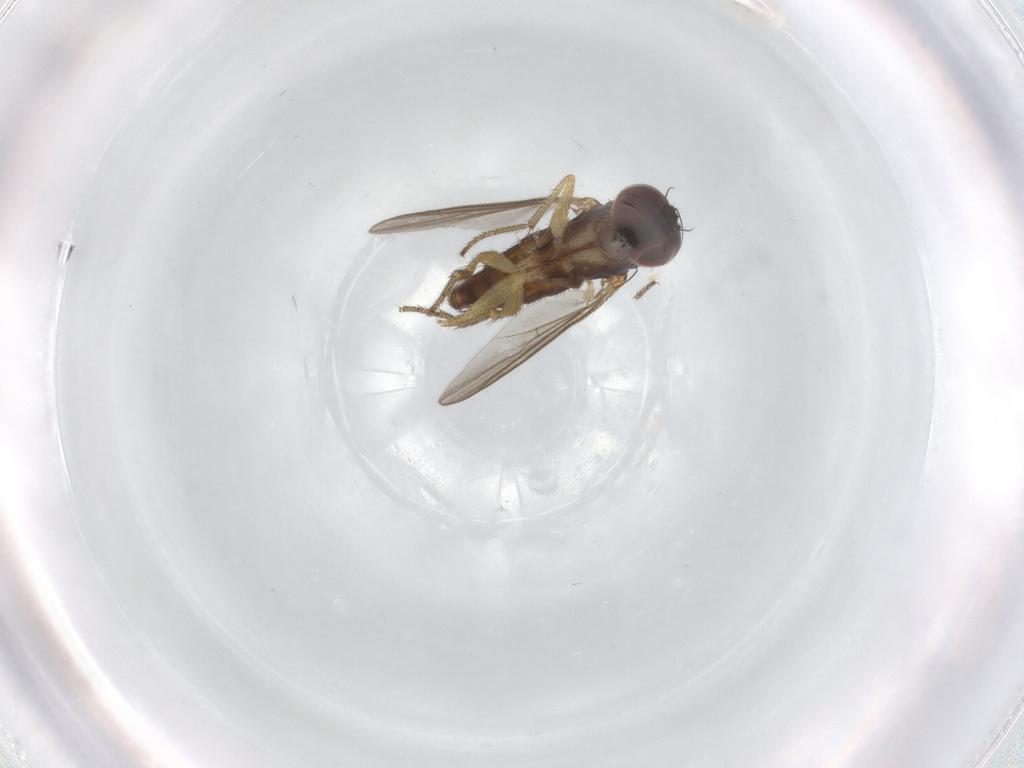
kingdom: Animalia
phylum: Arthropoda
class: Insecta
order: Diptera
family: Dolichopodidae
